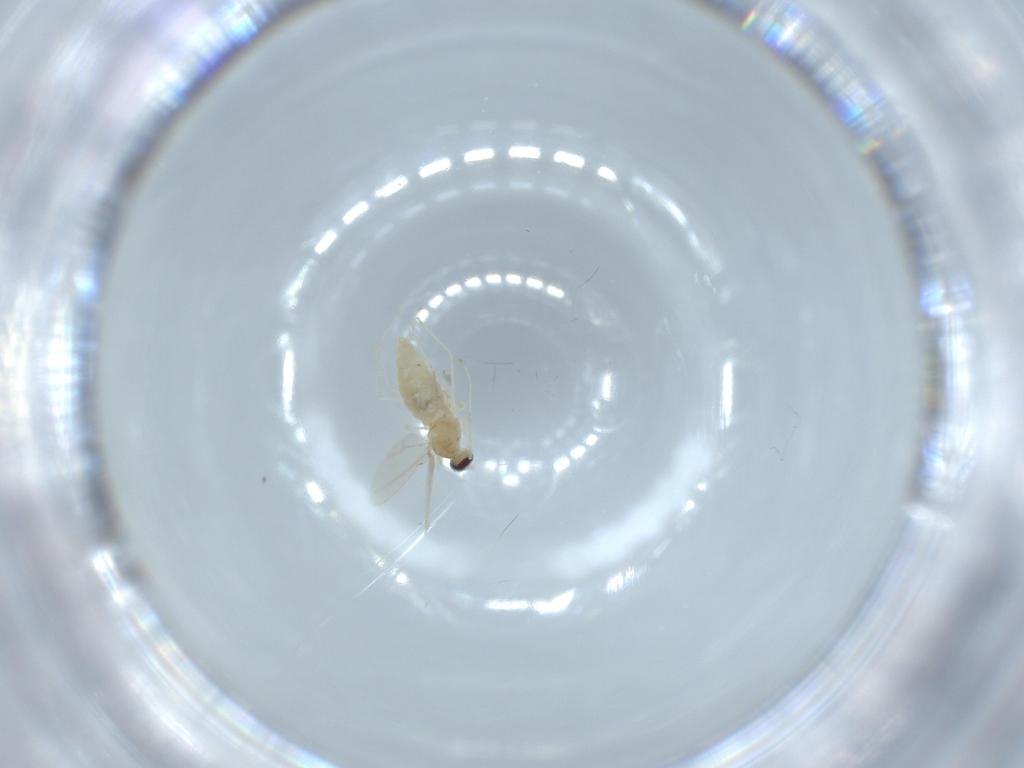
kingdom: Animalia
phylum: Arthropoda
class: Insecta
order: Diptera
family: Cecidomyiidae
